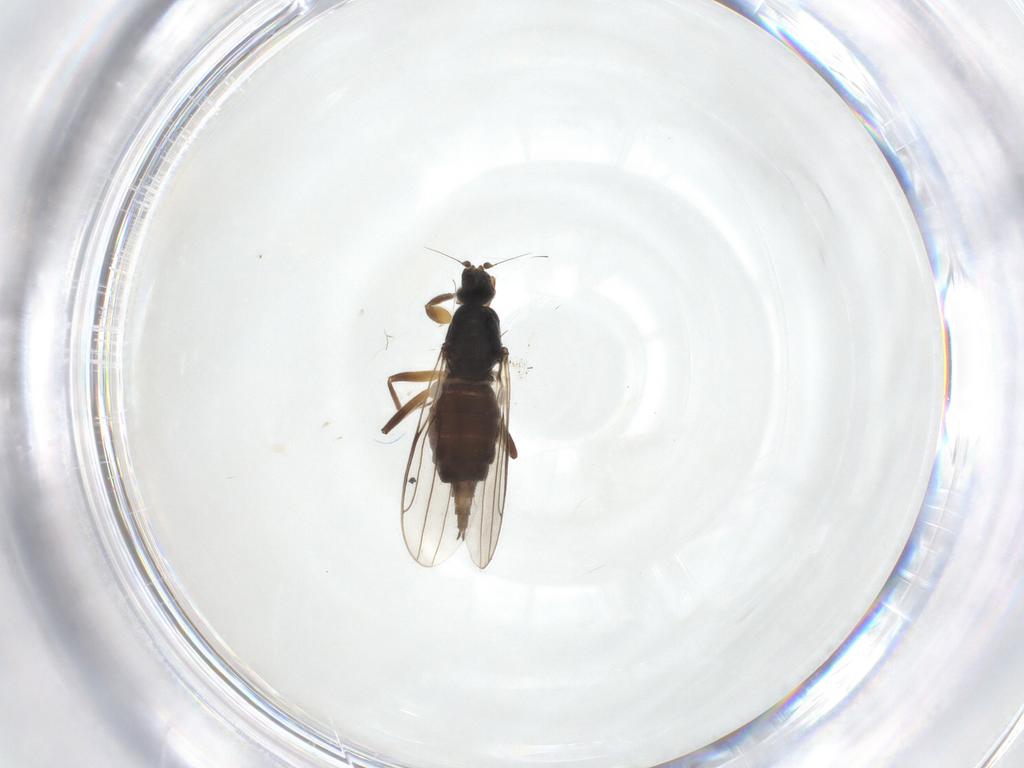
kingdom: Animalia
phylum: Arthropoda
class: Insecta
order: Diptera
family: Hybotidae
